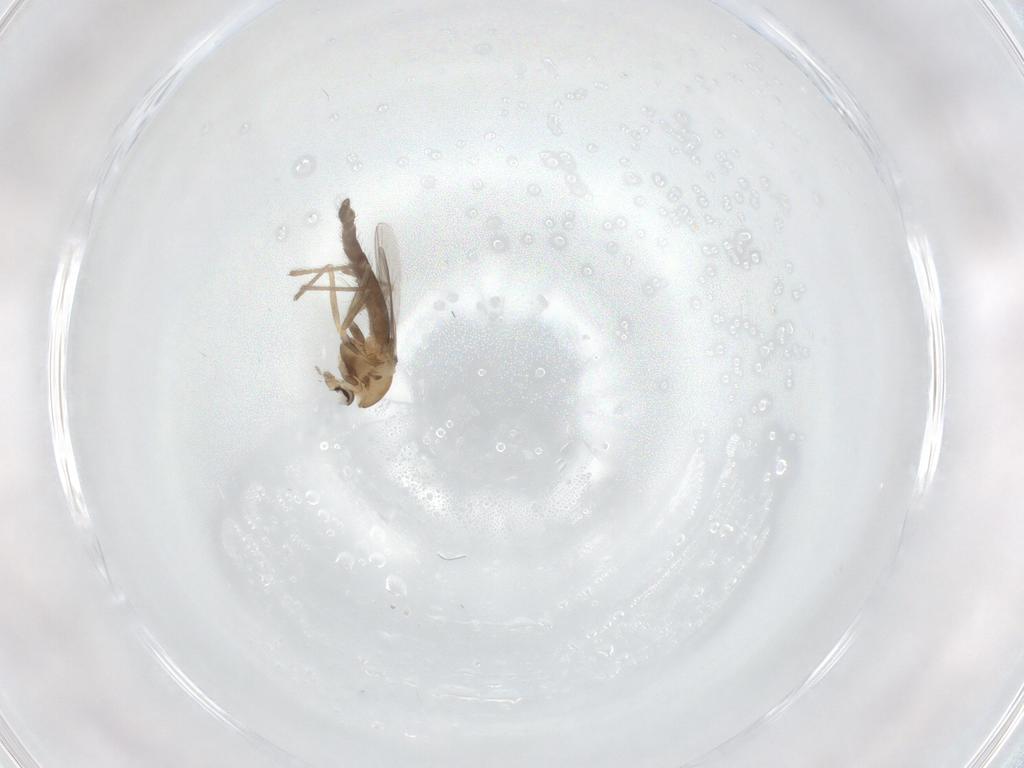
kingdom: Animalia
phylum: Arthropoda
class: Insecta
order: Diptera
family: Chironomidae
